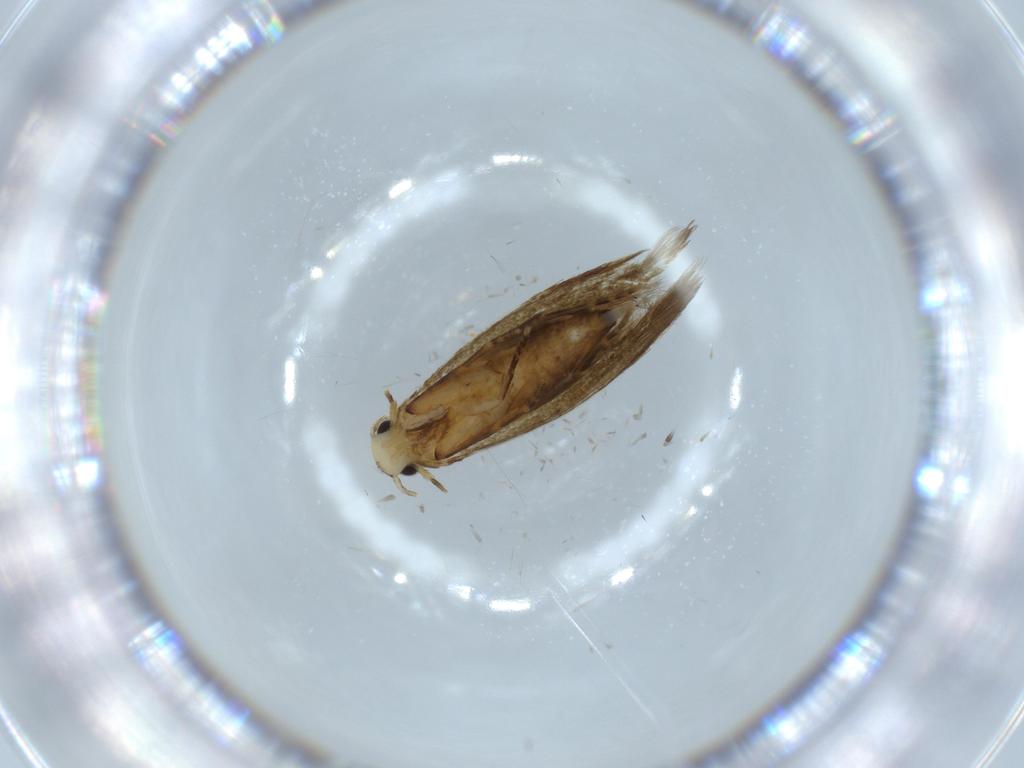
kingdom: Animalia
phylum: Arthropoda
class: Insecta
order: Lepidoptera
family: Tineidae
